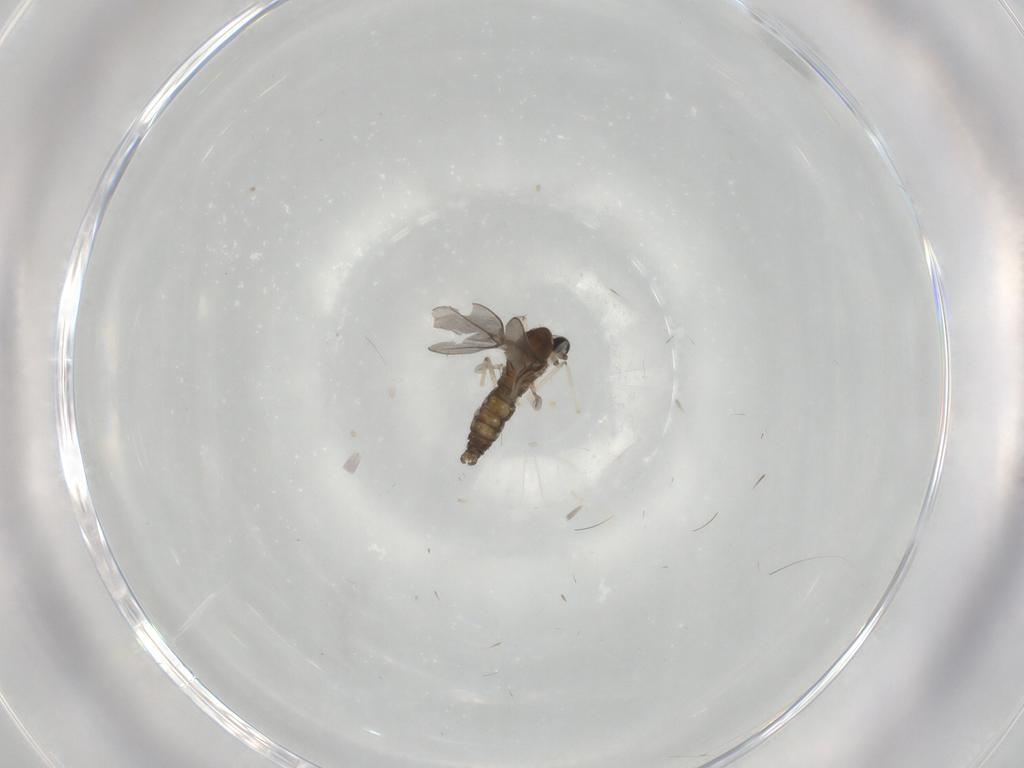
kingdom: Animalia
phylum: Arthropoda
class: Insecta
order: Diptera
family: Cecidomyiidae
